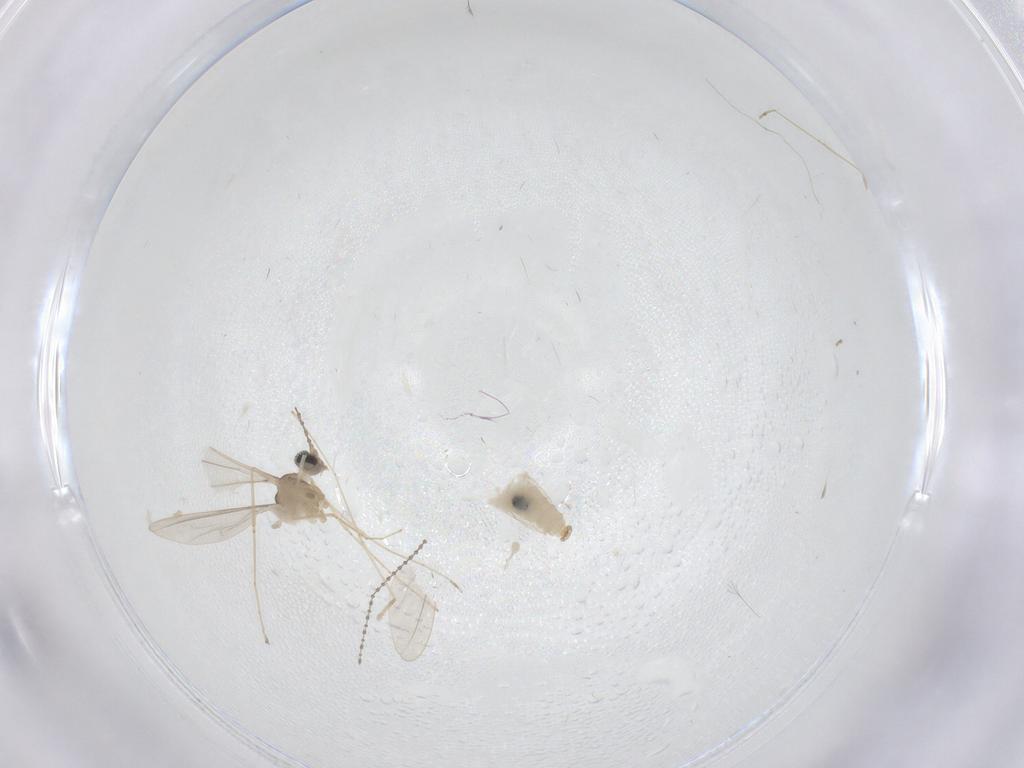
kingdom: Animalia
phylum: Arthropoda
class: Insecta
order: Diptera
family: Cecidomyiidae
